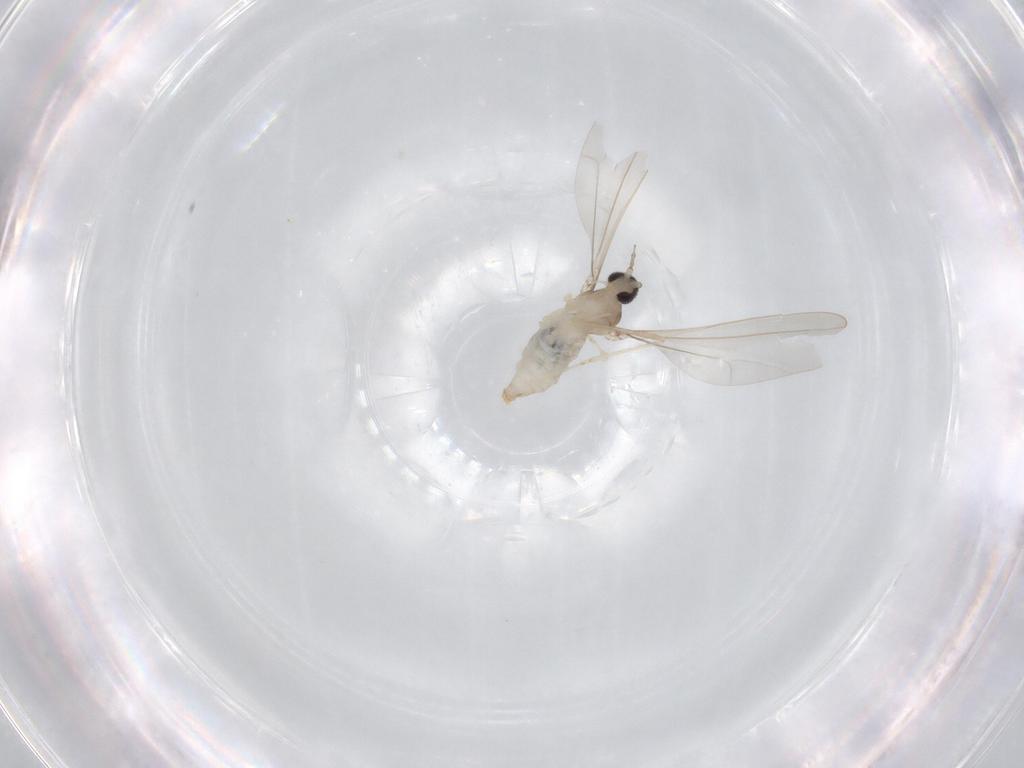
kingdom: Animalia
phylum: Arthropoda
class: Insecta
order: Diptera
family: Cecidomyiidae
